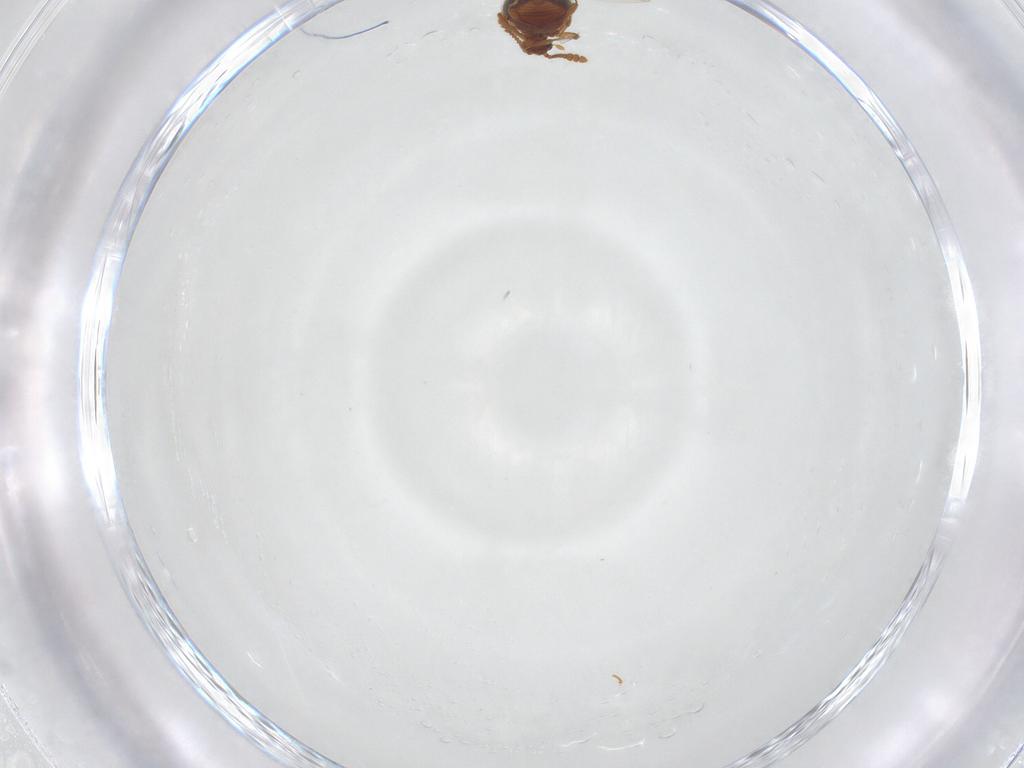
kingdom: Animalia
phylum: Arthropoda
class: Insecta
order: Coleoptera
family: Staphylinidae
